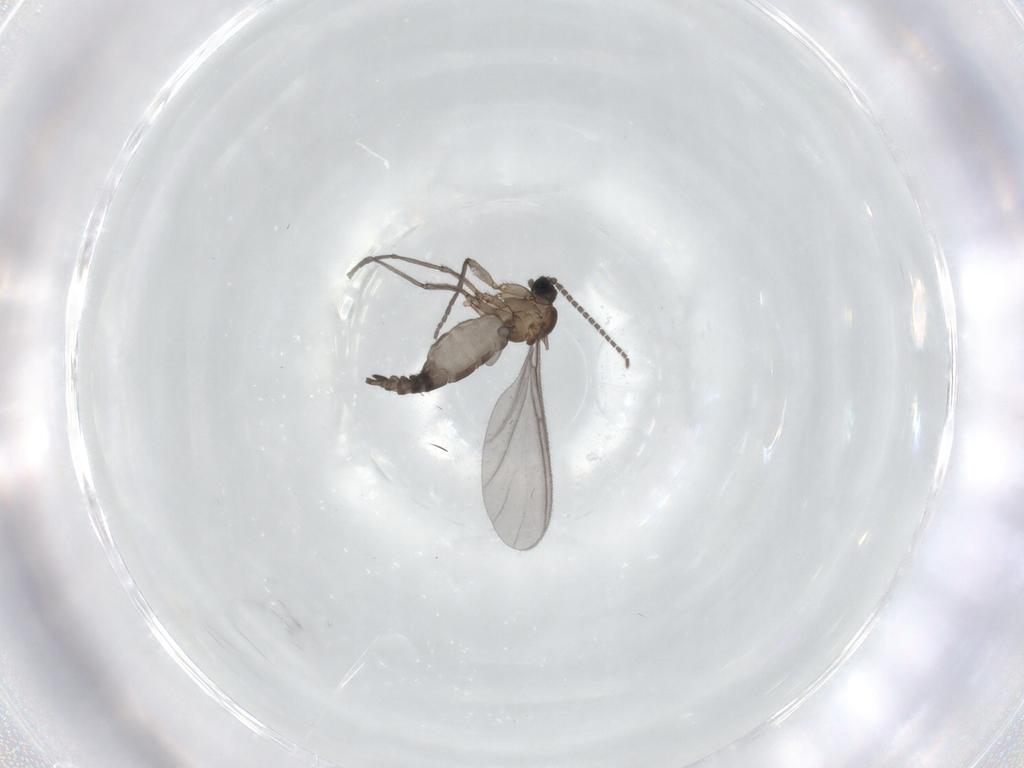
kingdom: Animalia
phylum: Arthropoda
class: Insecta
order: Diptera
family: Sciaridae
